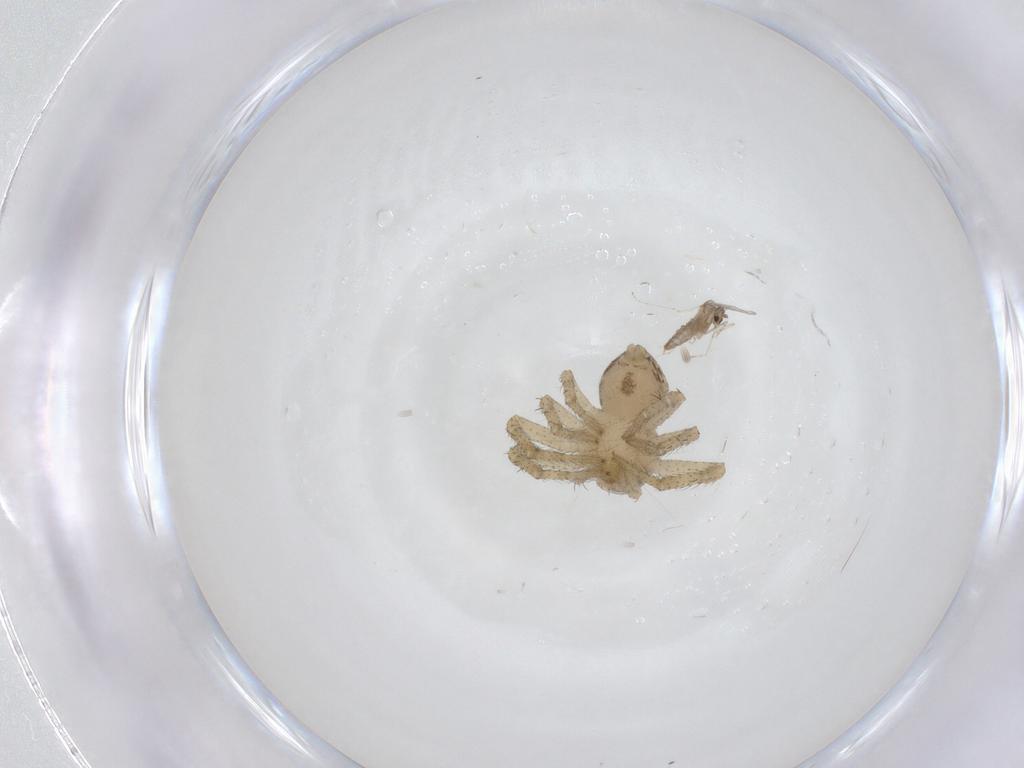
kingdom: Animalia
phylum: Arthropoda
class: Insecta
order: Diptera
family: Cecidomyiidae
